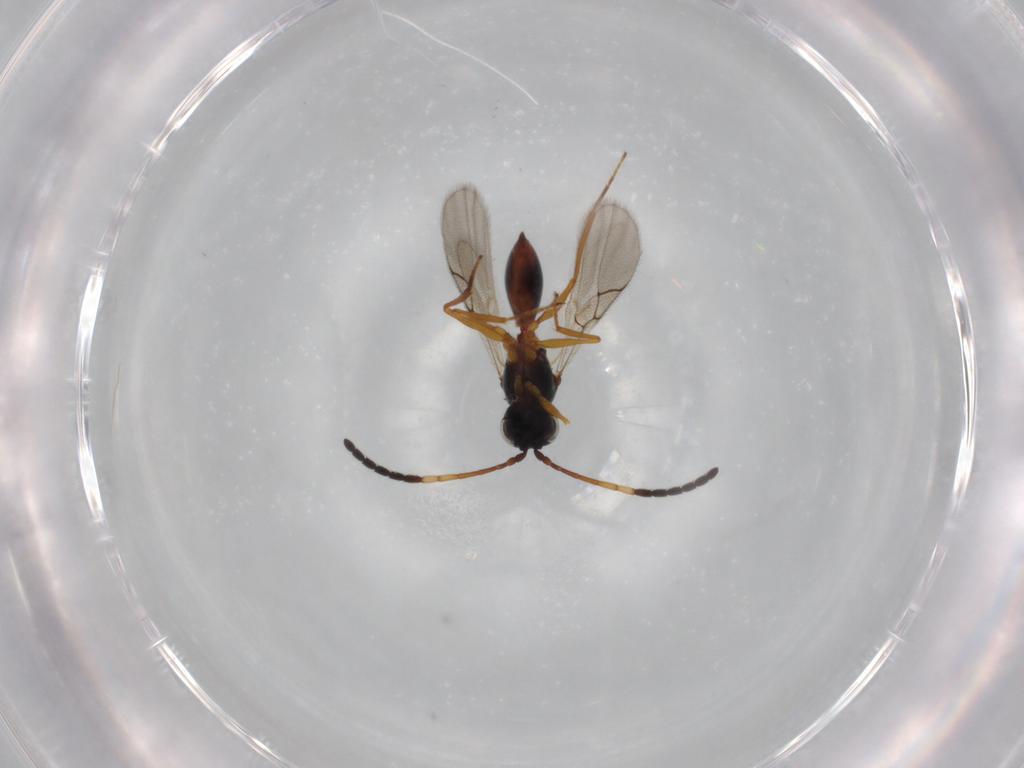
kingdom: Animalia
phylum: Arthropoda
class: Insecta
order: Hymenoptera
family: Figitidae
